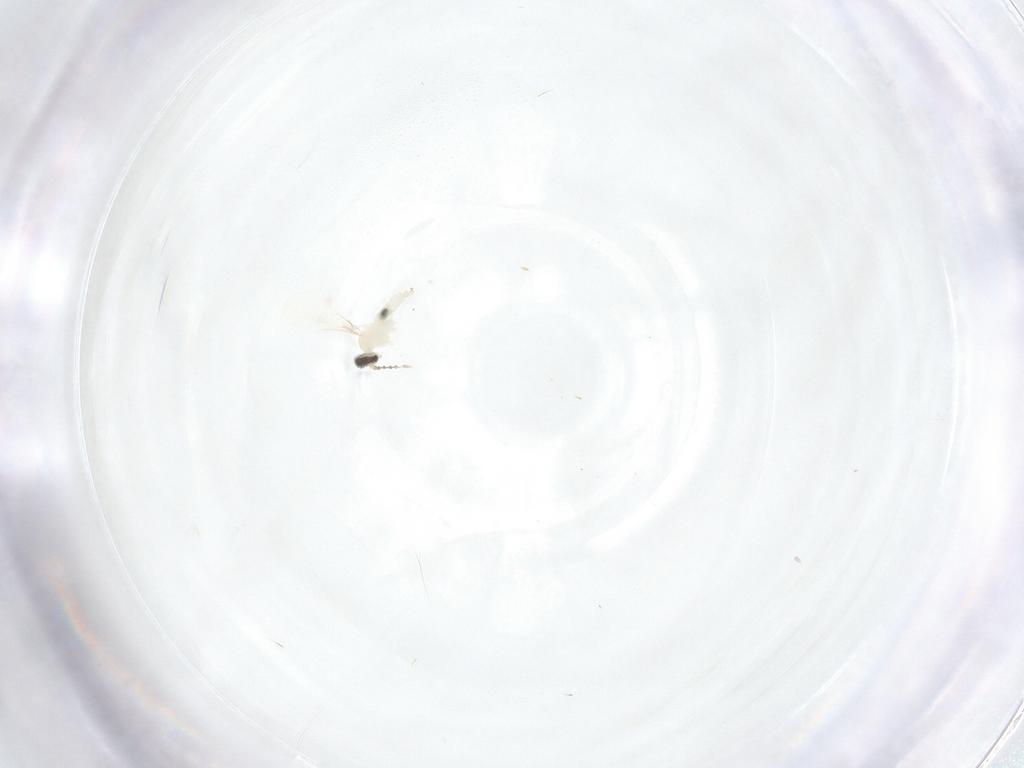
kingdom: Animalia
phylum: Arthropoda
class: Insecta
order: Diptera
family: Cecidomyiidae
